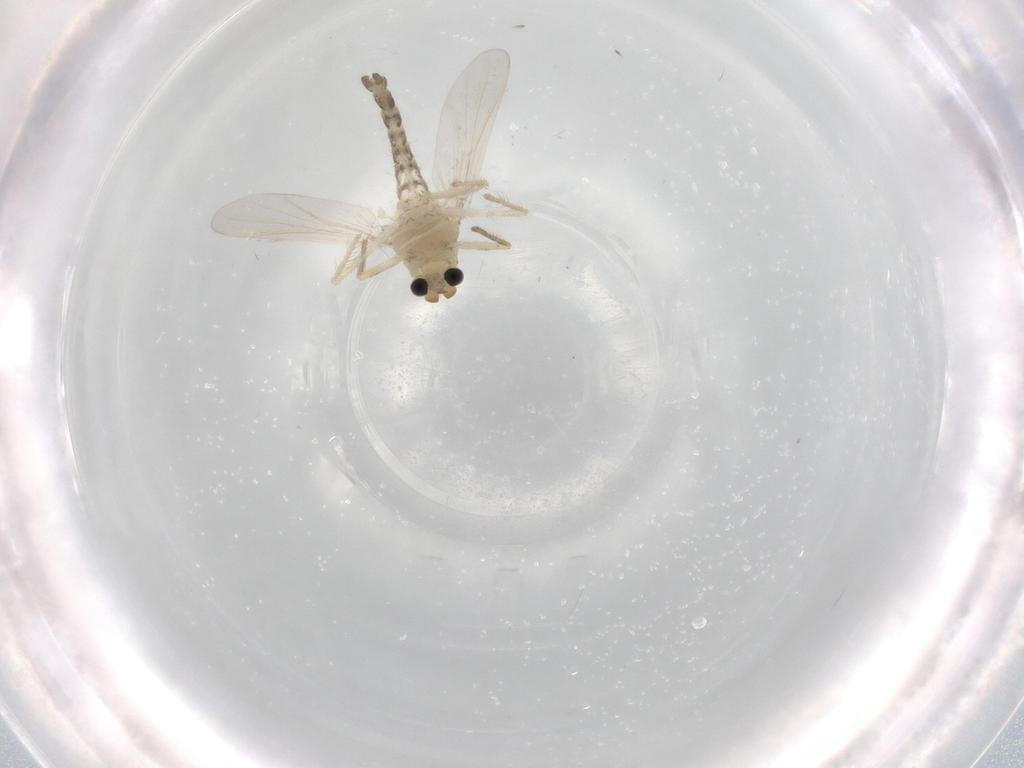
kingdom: Animalia
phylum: Arthropoda
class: Insecta
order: Diptera
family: Chironomidae
